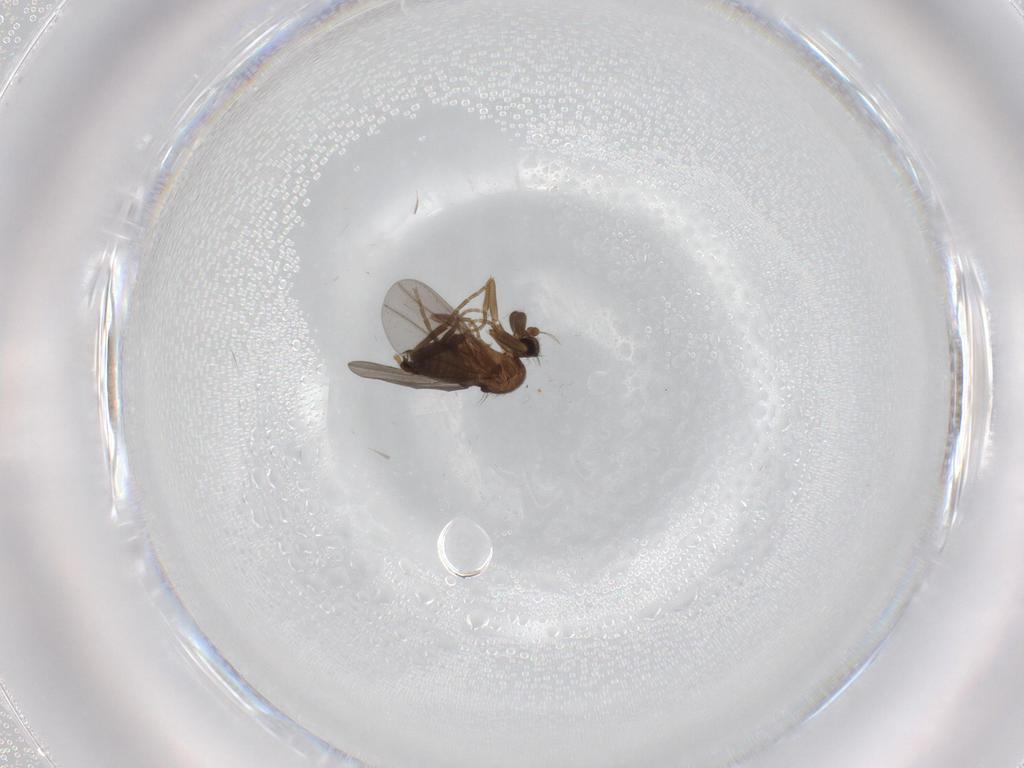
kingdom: Animalia
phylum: Arthropoda
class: Insecta
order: Diptera
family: Phoridae
